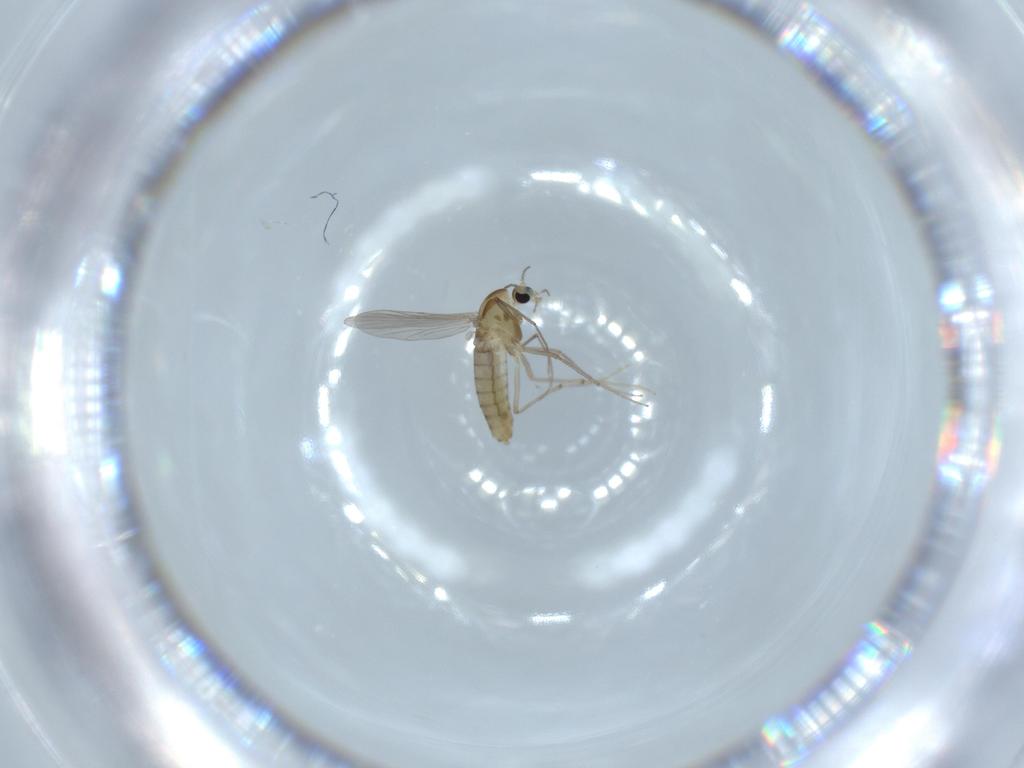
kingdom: Animalia
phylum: Arthropoda
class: Insecta
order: Diptera
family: Chironomidae
